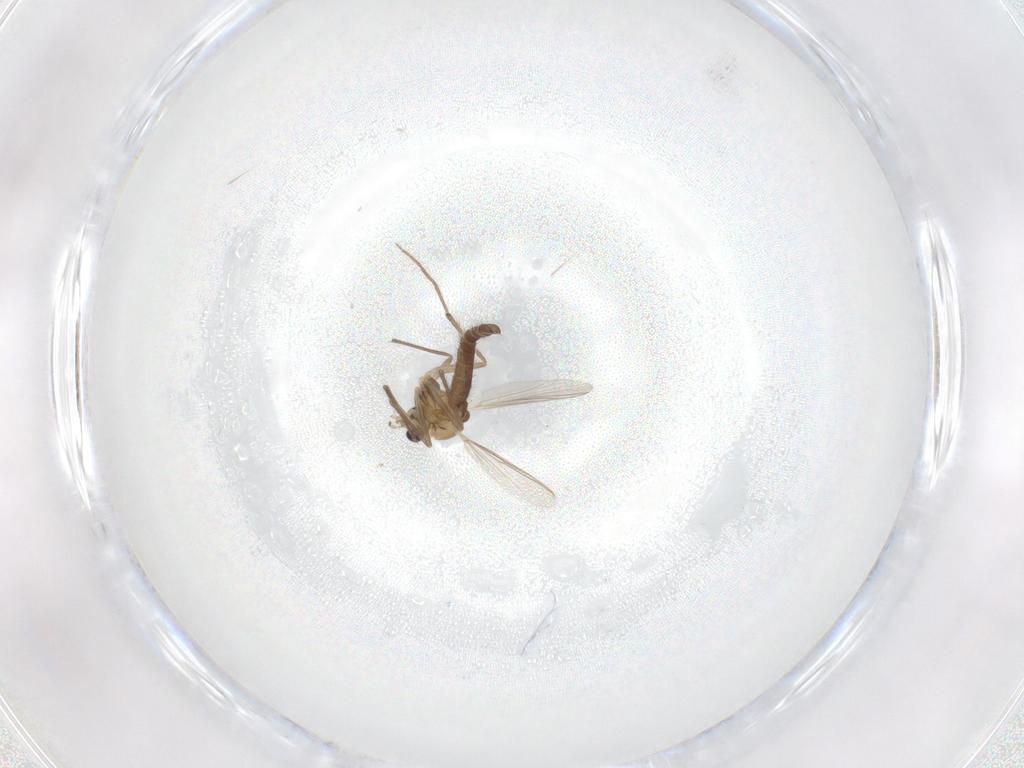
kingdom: Animalia
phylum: Arthropoda
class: Insecta
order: Diptera
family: Chironomidae
